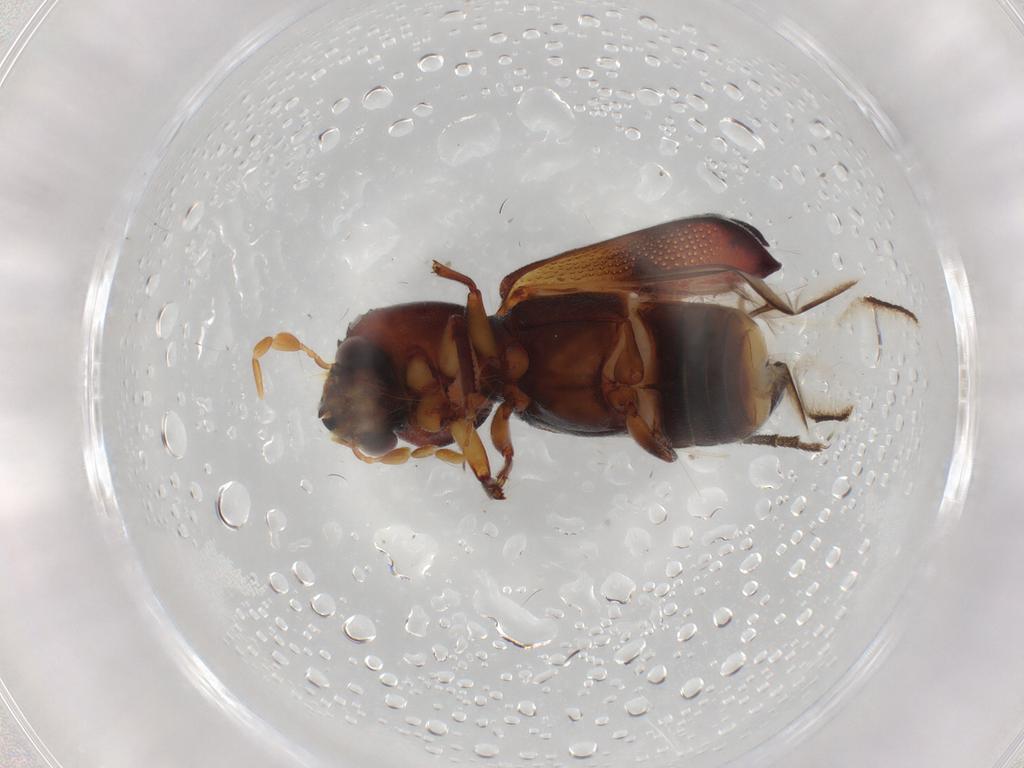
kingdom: Animalia
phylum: Arthropoda
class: Insecta
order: Coleoptera
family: Bostrichidae
